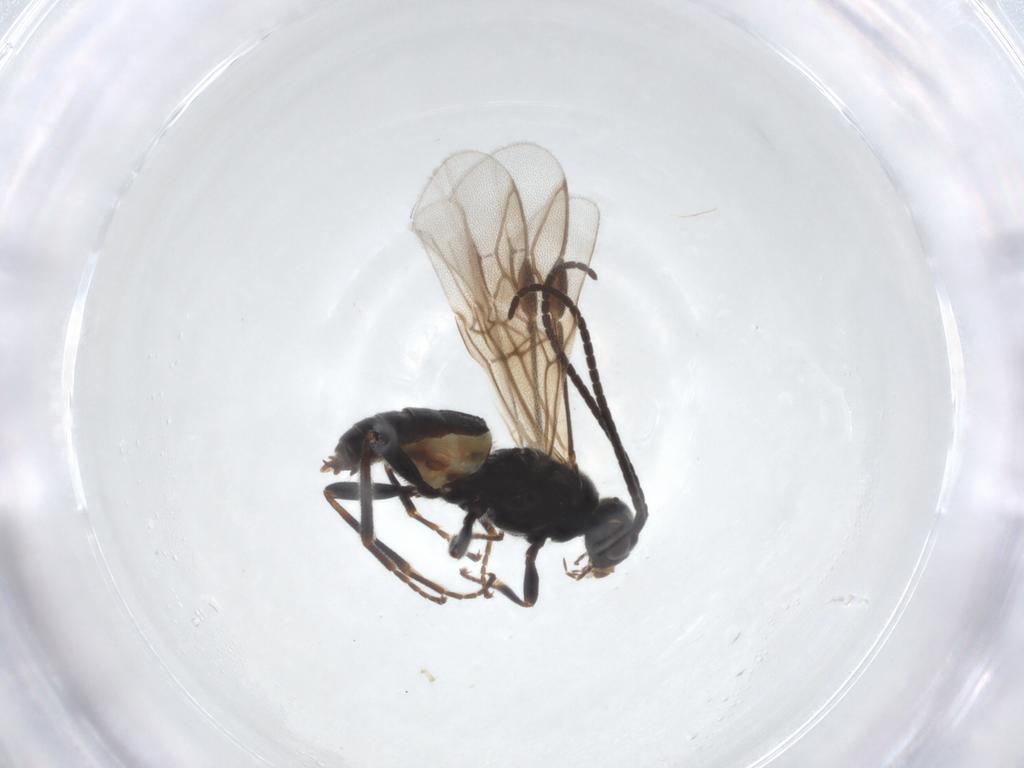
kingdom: Animalia
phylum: Arthropoda
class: Insecta
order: Hymenoptera
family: Braconidae
